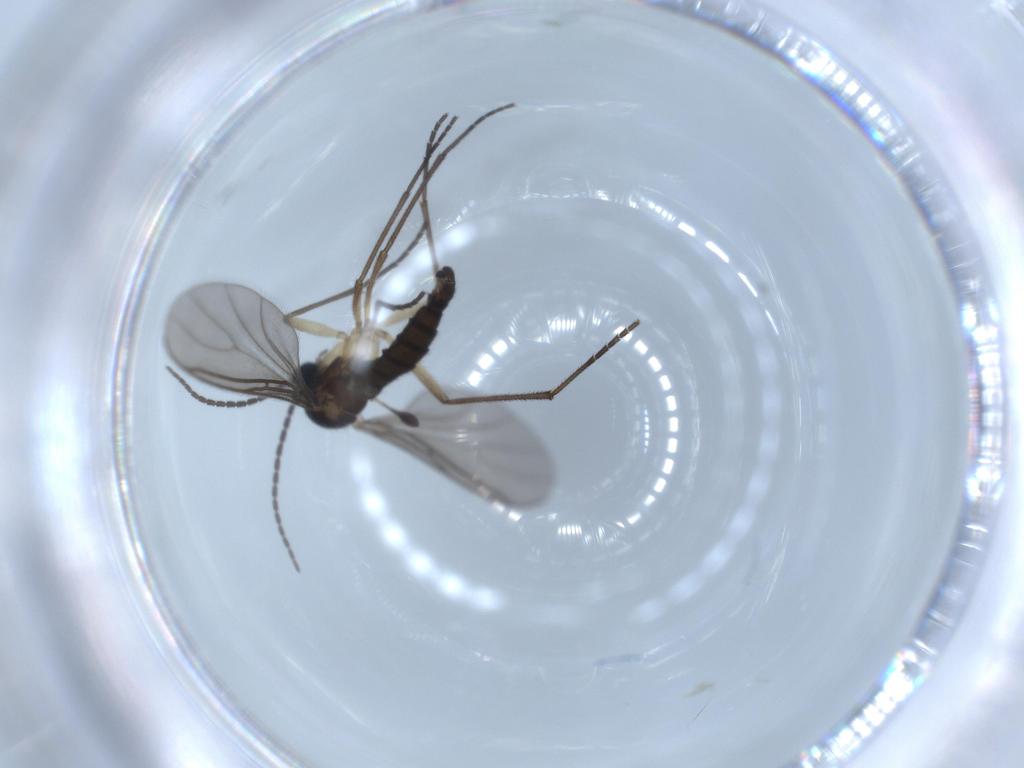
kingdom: Animalia
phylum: Arthropoda
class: Insecta
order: Diptera
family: Sciaridae
